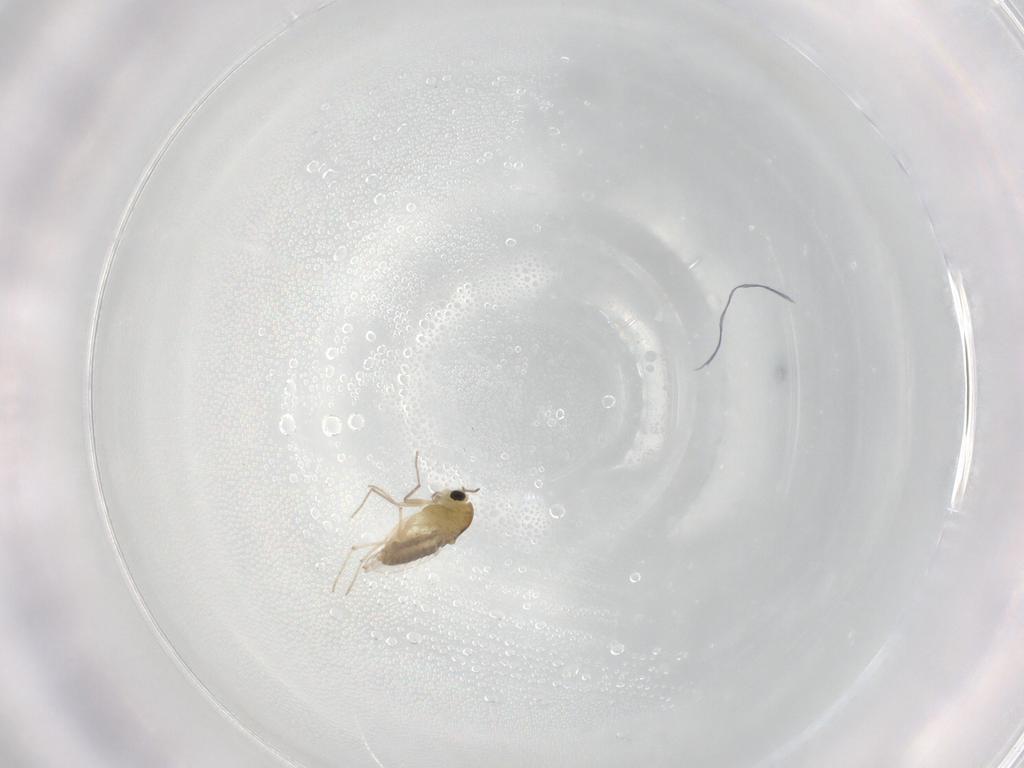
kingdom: Animalia
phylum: Arthropoda
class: Insecta
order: Diptera
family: Chironomidae
